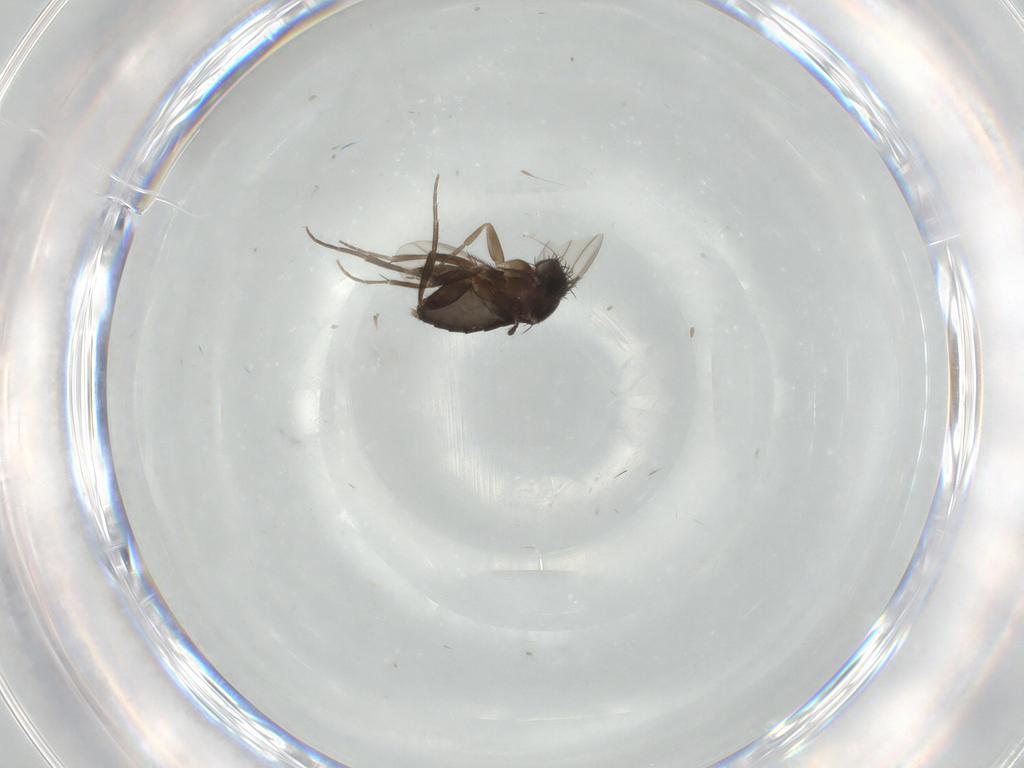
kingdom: Animalia
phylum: Arthropoda
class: Insecta
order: Diptera
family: Phoridae
